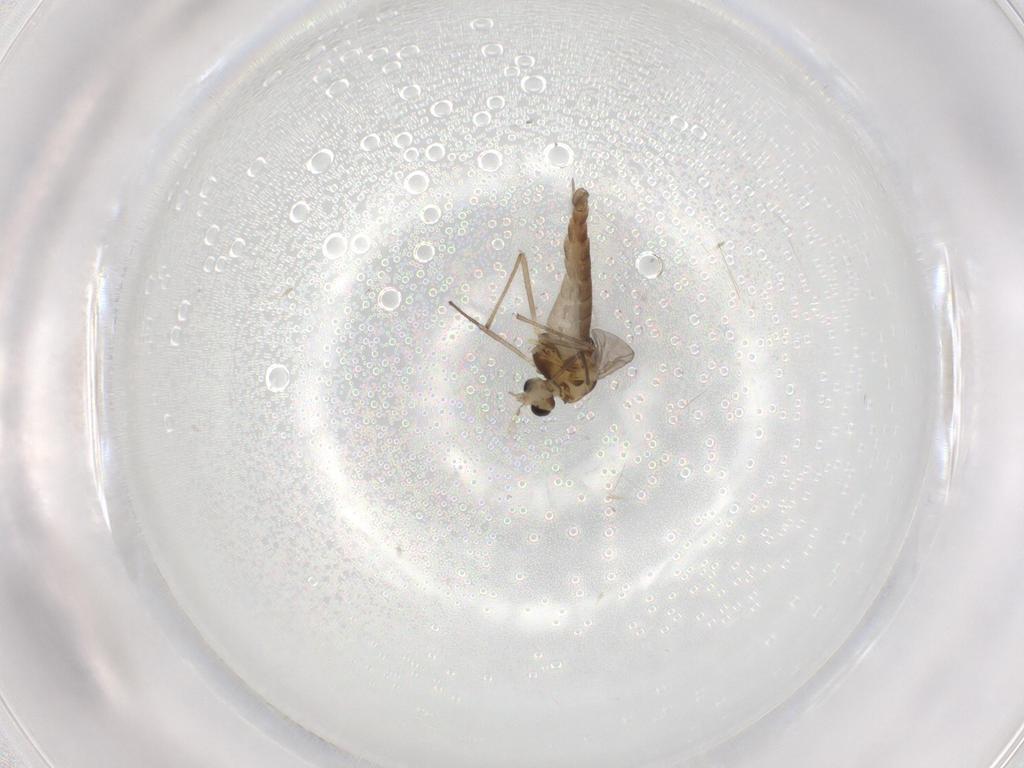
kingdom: Animalia
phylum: Arthropoda
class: Insecta
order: Diptera
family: Chironomidae
